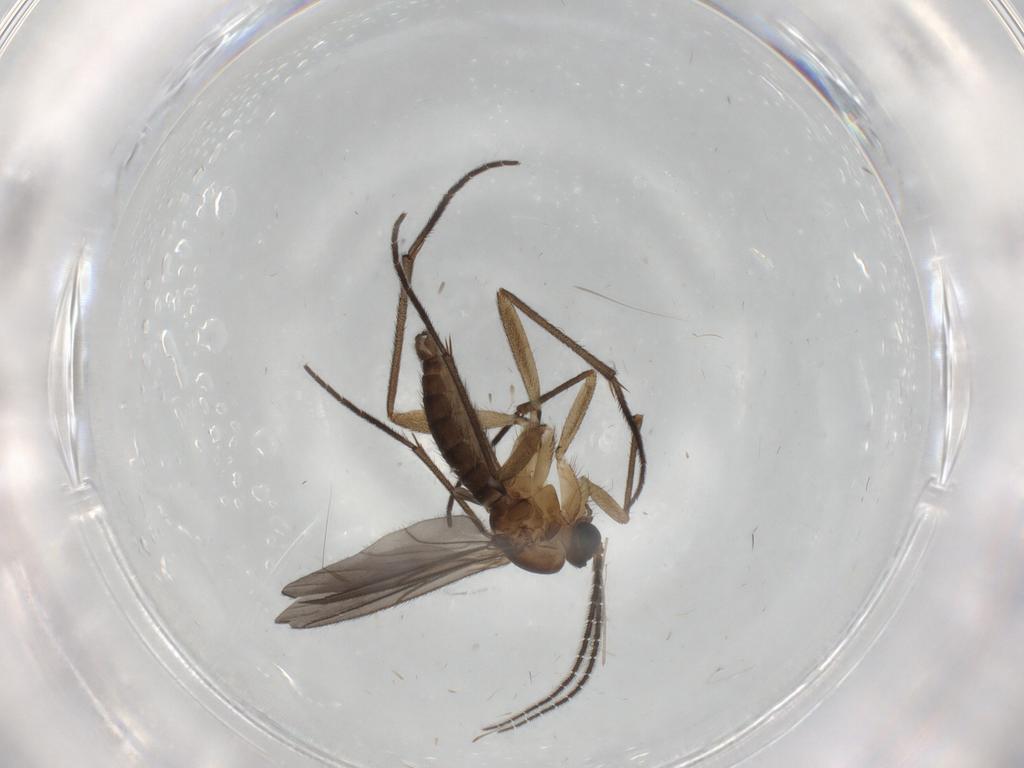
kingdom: Animalia
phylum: Arthropoda
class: Insecta
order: Diptera
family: Sciaridae
